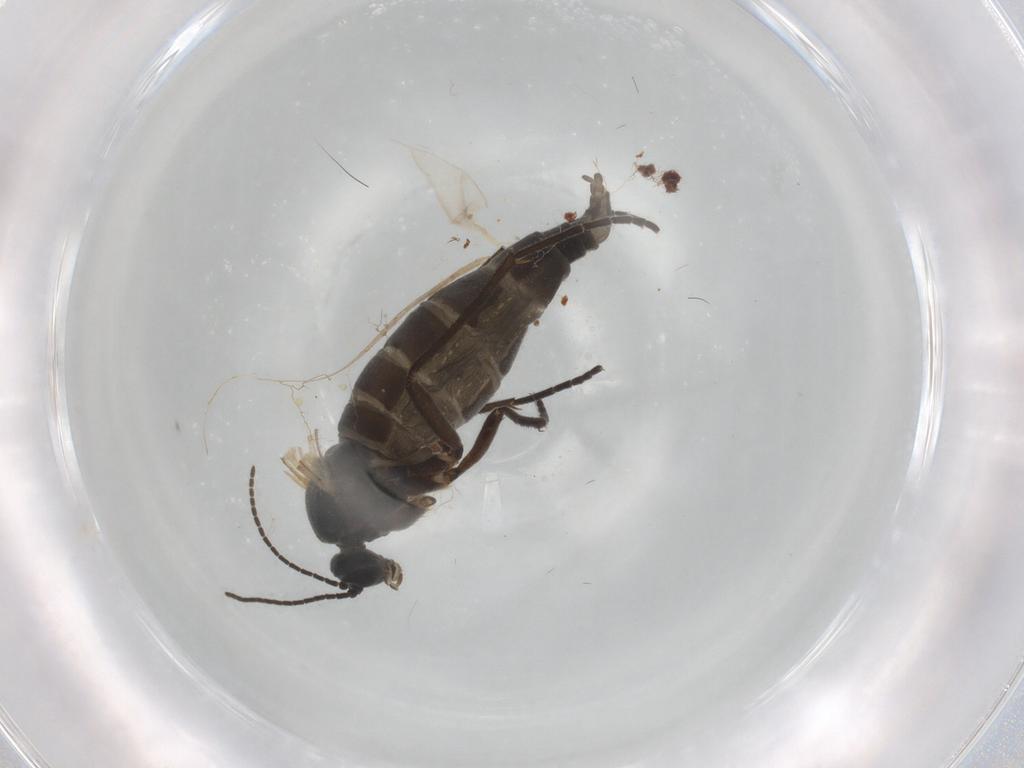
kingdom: Animalia
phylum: Arthropoda
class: Insecta
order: Diptera
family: Chironomidae
